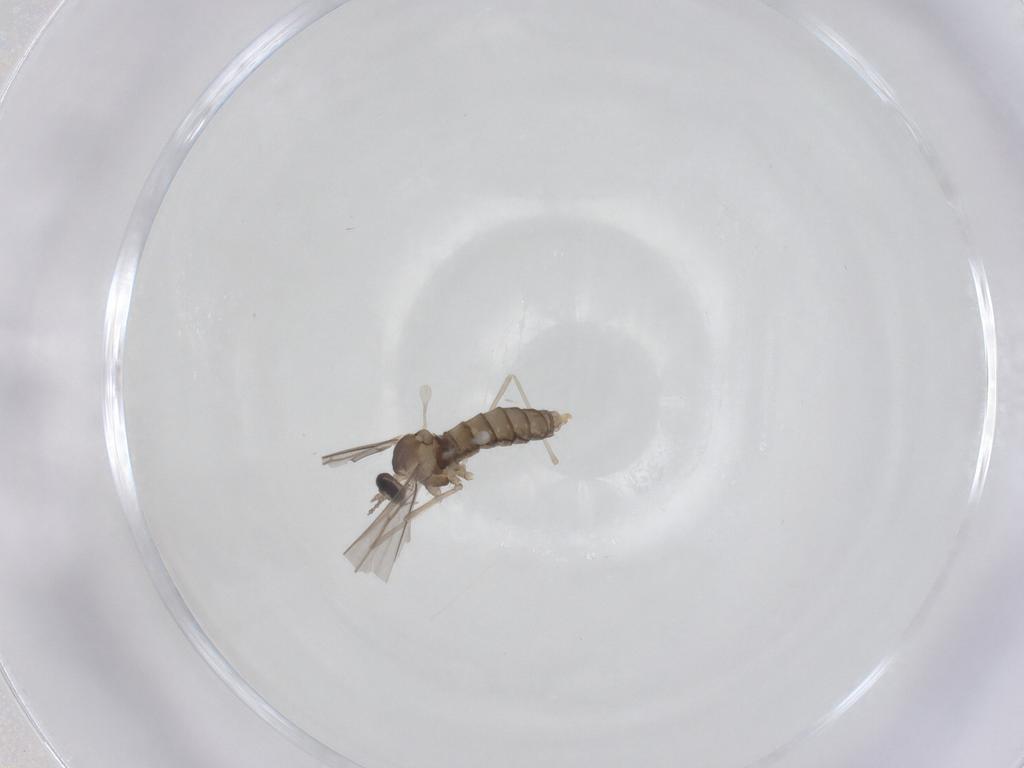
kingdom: Animalia
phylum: Arthropoda
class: Insecta
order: Diptera
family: Cecidomyiidae
